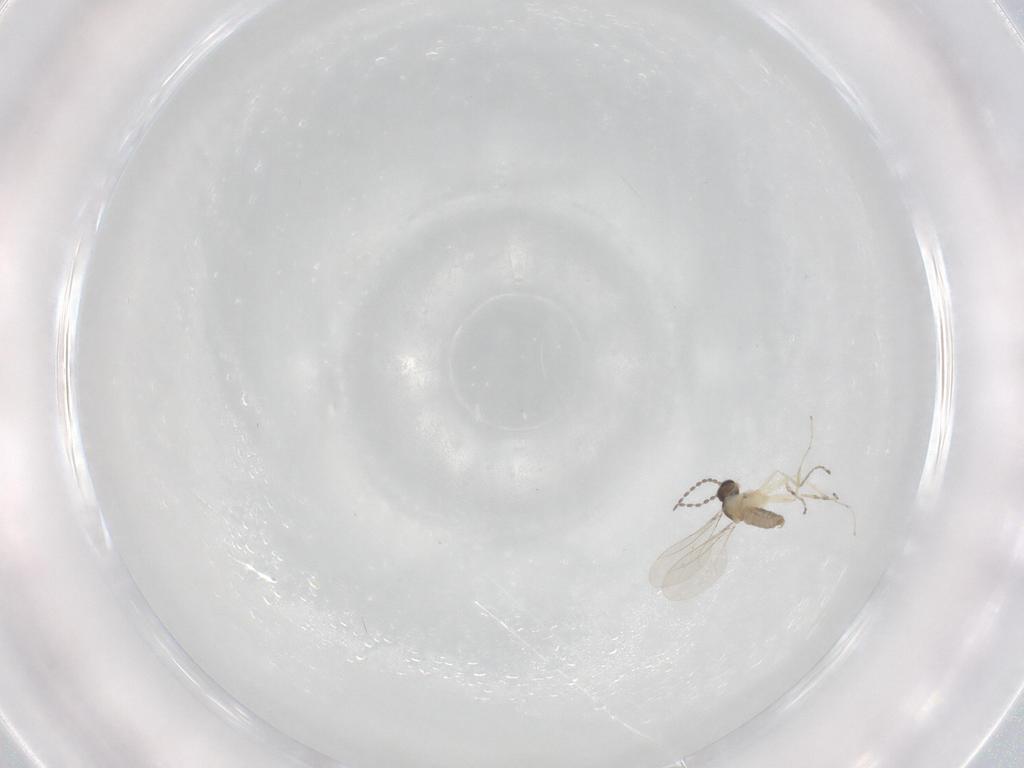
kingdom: Animalia
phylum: Arthropoda
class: Insecta
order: Diptera
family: Cecidomyiidae
